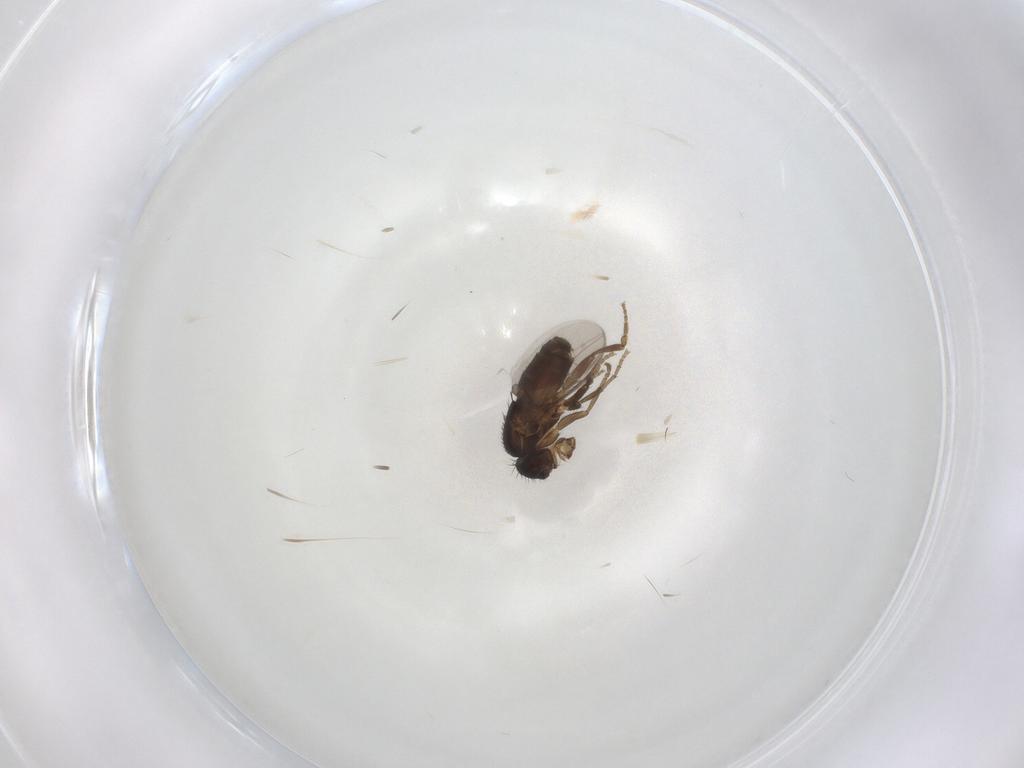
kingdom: Animalia
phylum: Arthropoda
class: Insecta
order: Diptera
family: Sphaeroceridae
